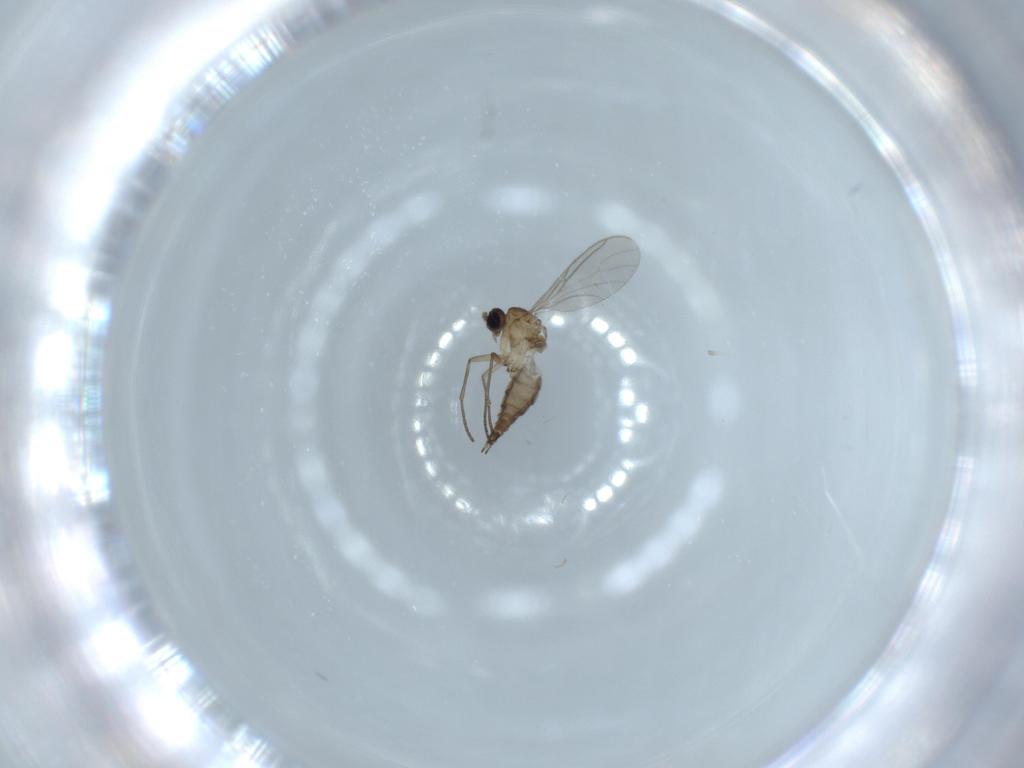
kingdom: Animalia
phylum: Arthropoda
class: Insecta
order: Diptera
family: Sciaridae
